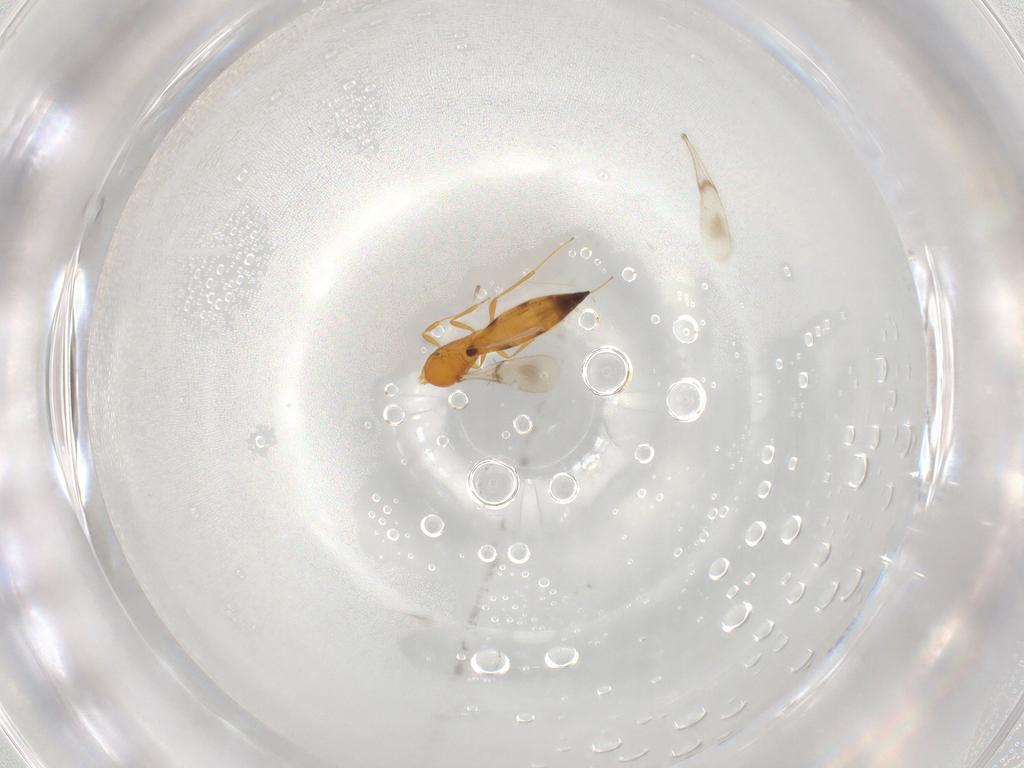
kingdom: Animalia
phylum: Arthropoda
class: Insecta
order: Hymenoptera
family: Scelionidae
